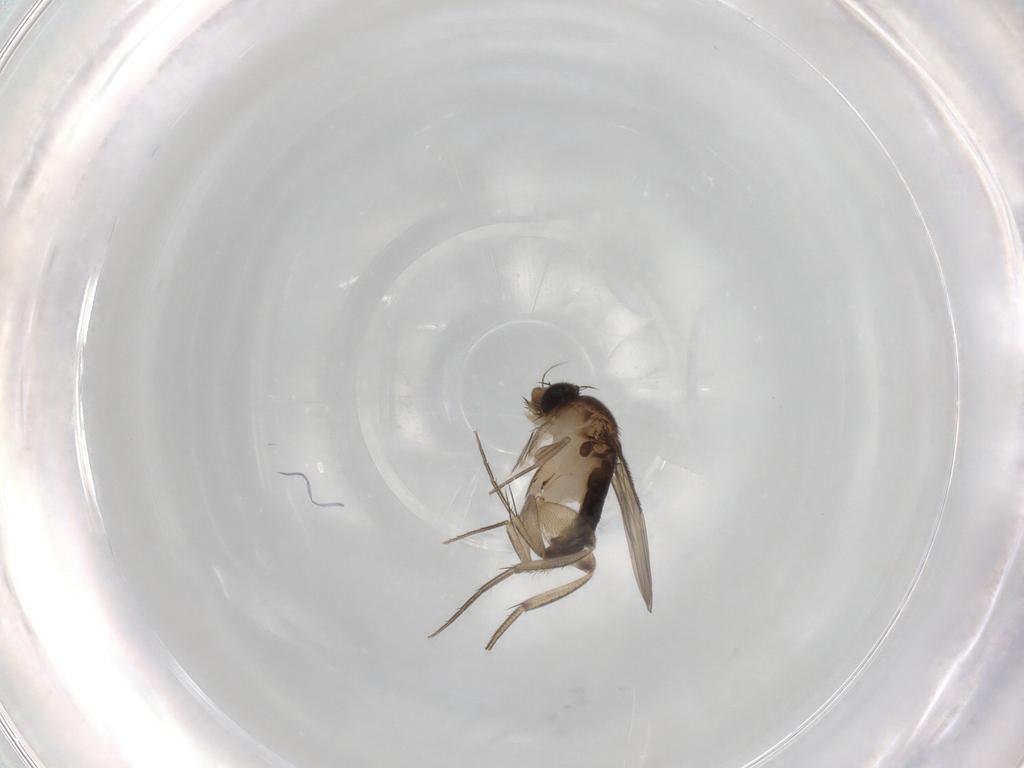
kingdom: Animalia
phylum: Arthropoda
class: Insecta
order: Diptera
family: Phoridae
